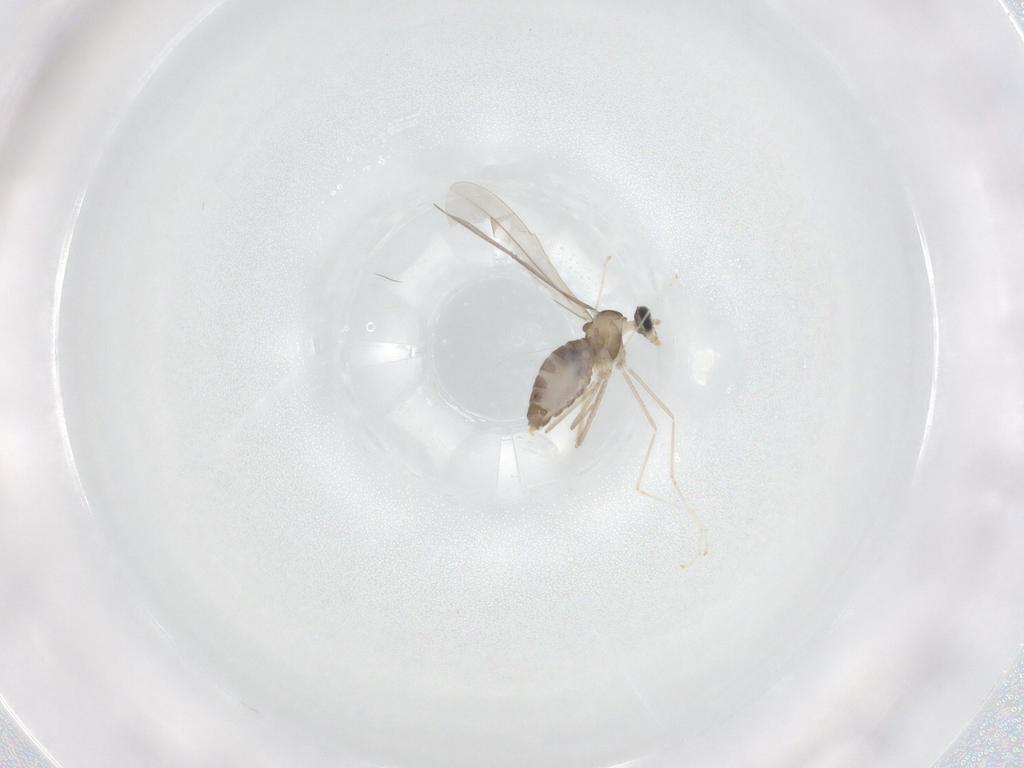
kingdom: Animalia
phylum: Arthropoda
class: Insecta
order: Diptera
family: Cecidomyiidae
